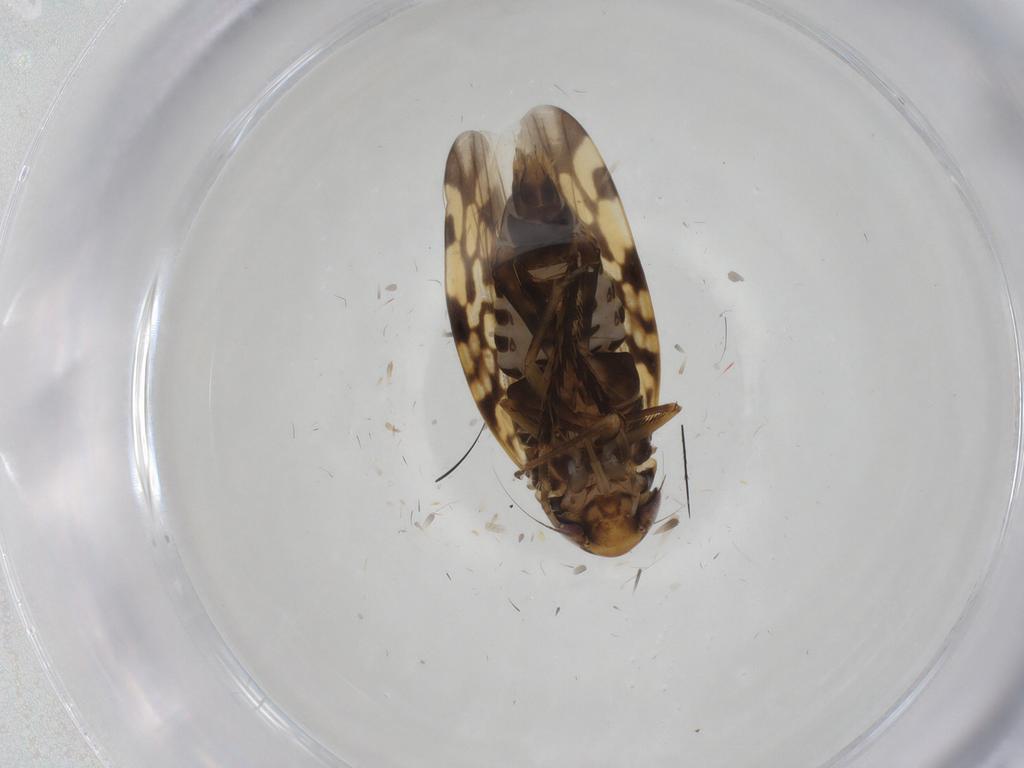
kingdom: Animalia
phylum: Arthropoda
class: Insecta
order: Hemiptera
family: Cicadellidae
